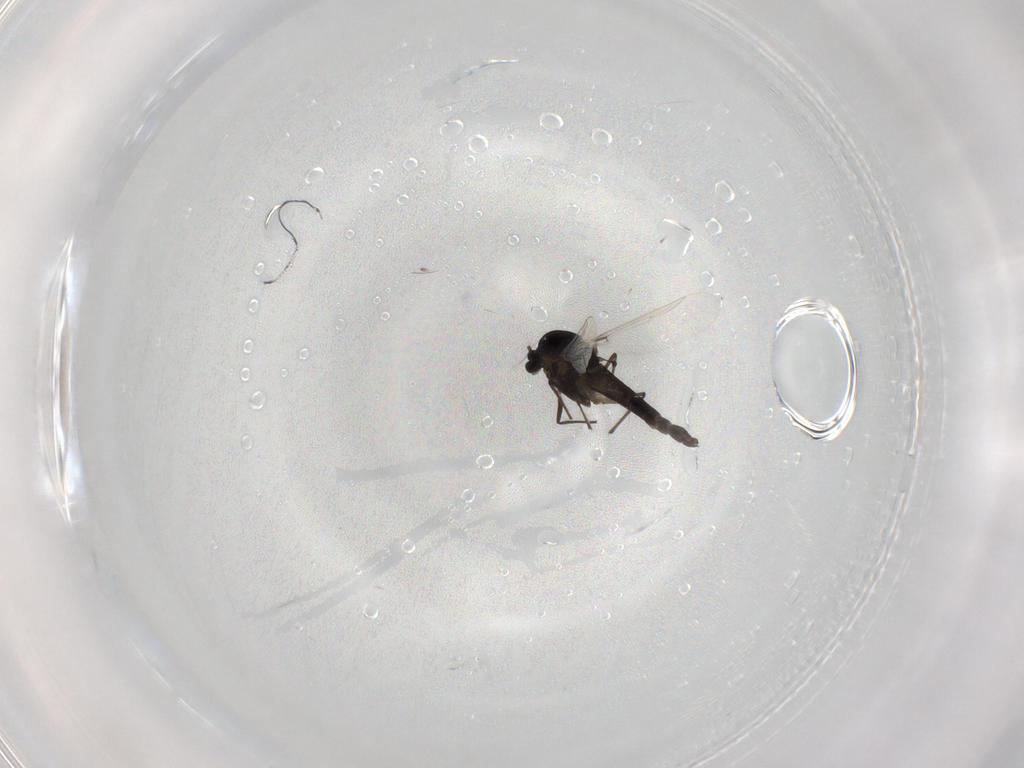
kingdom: Animalia
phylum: Arthropoda
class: Insecta
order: Diptera
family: Chironomidae
